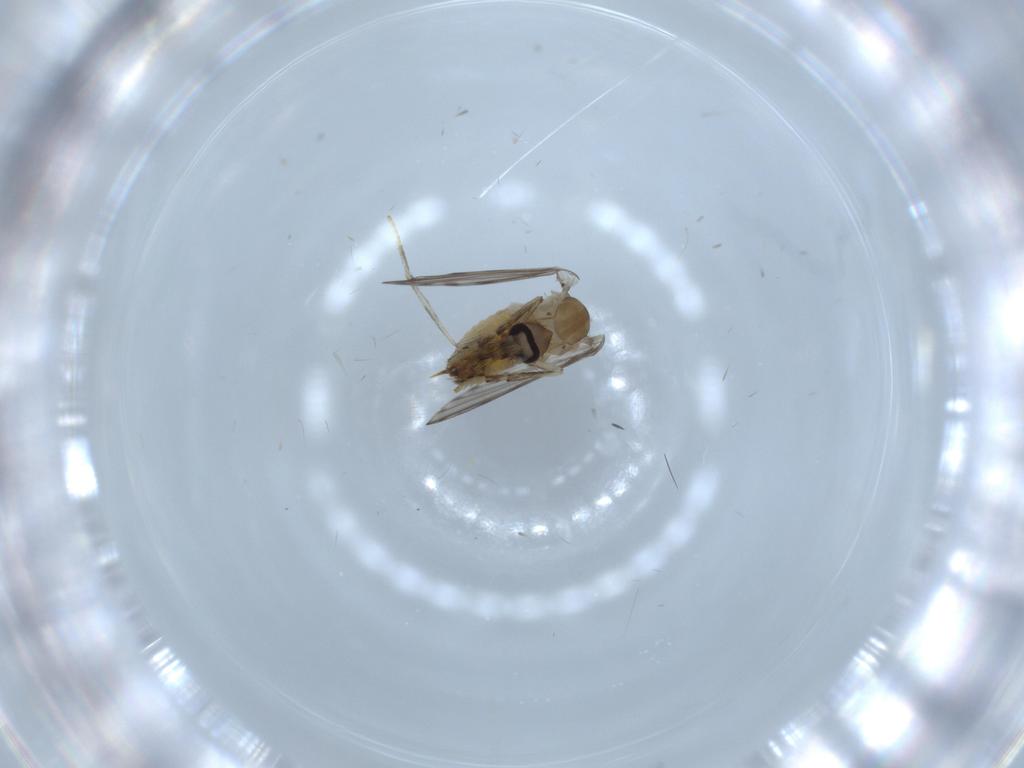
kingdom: Animalia
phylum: Arthropoda
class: Insecta
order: Diptera
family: Psychodidae
